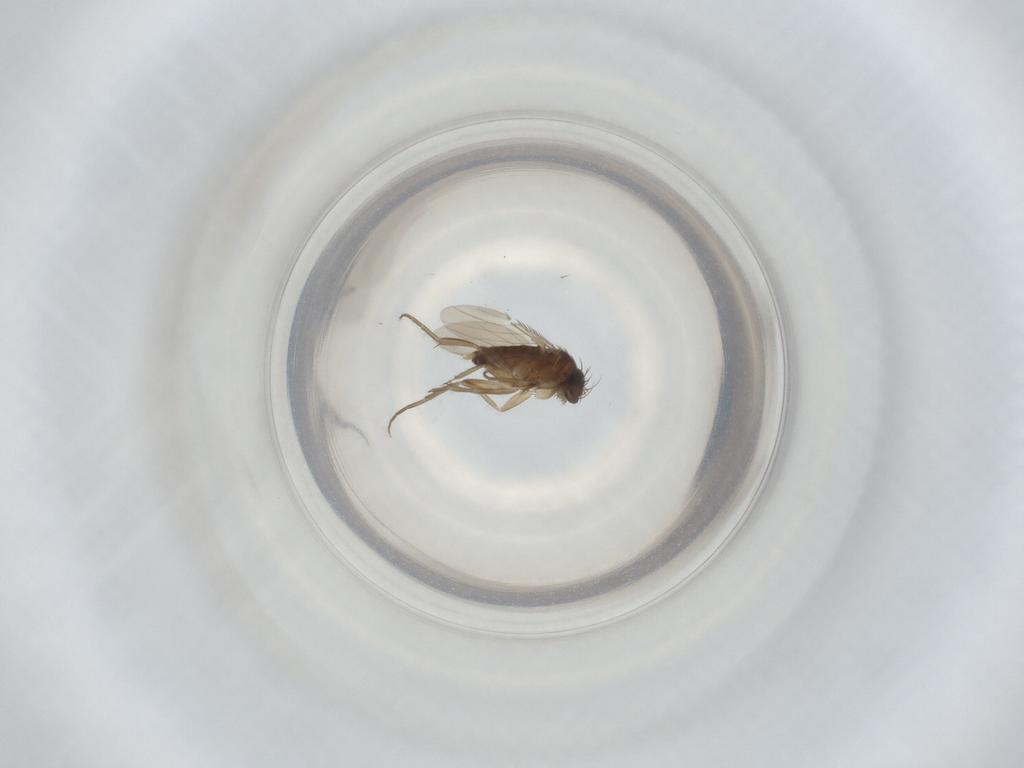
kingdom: Animalia
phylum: Arthropoda
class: Insecta
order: Diptera
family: Phoridae
